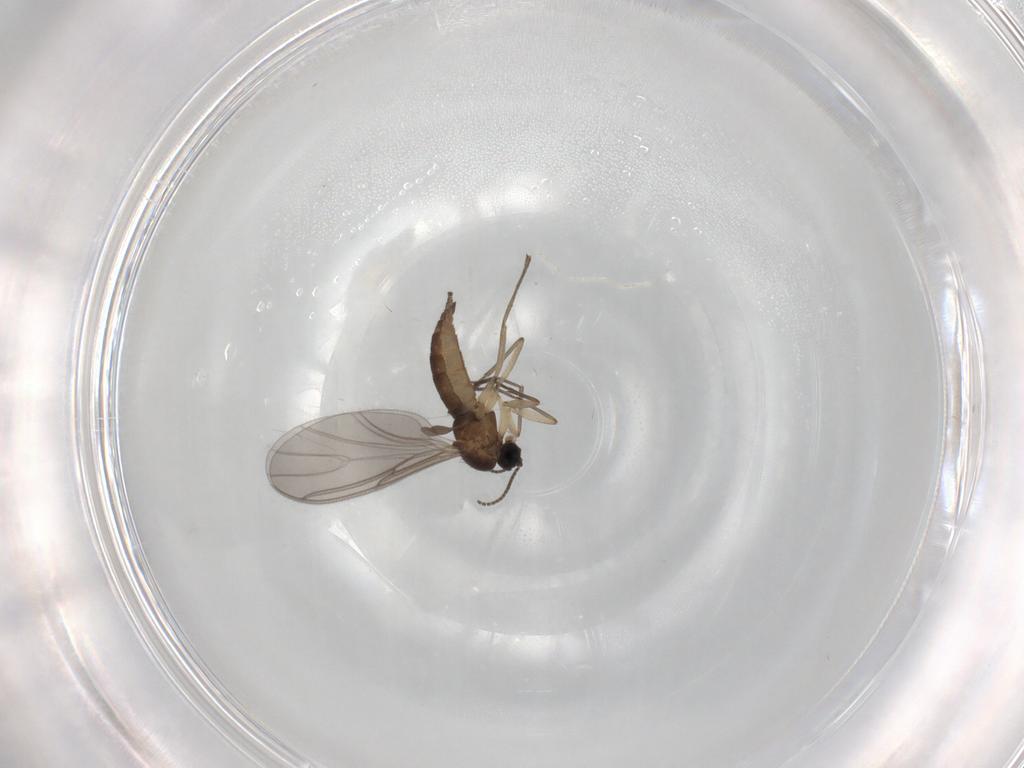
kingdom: Animalia
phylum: Arthropoda
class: Insecta
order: Diptera
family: Sciaridae
